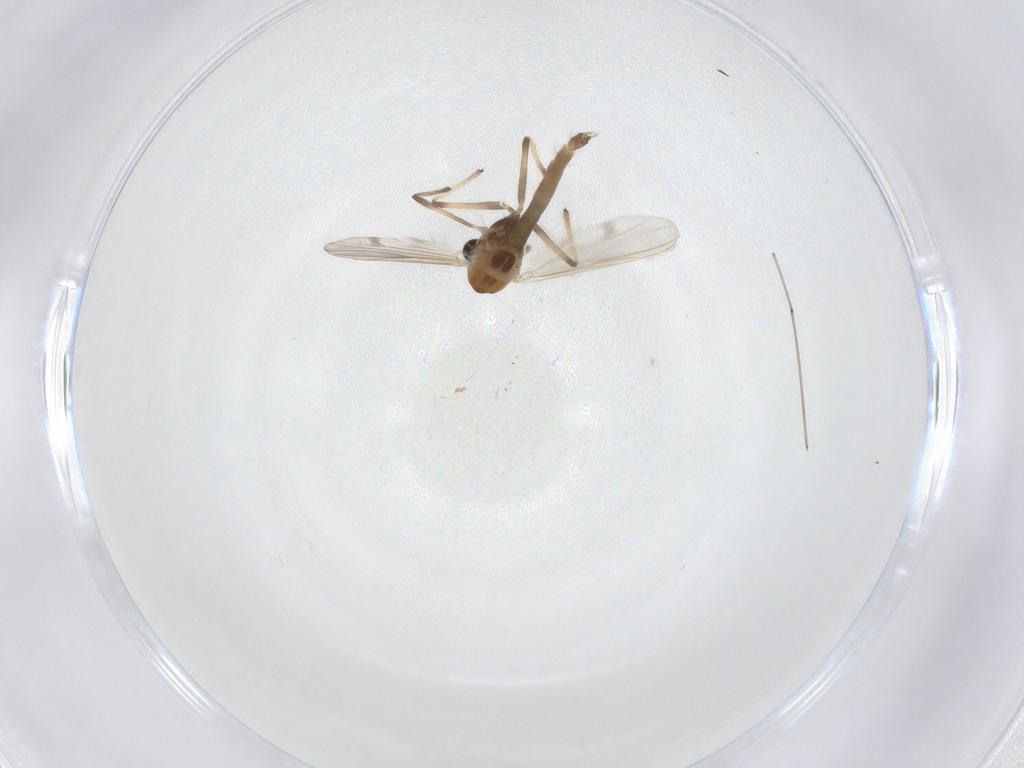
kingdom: Animalia
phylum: Arthropoda
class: Insecta
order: Diptera
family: Chironomidae
